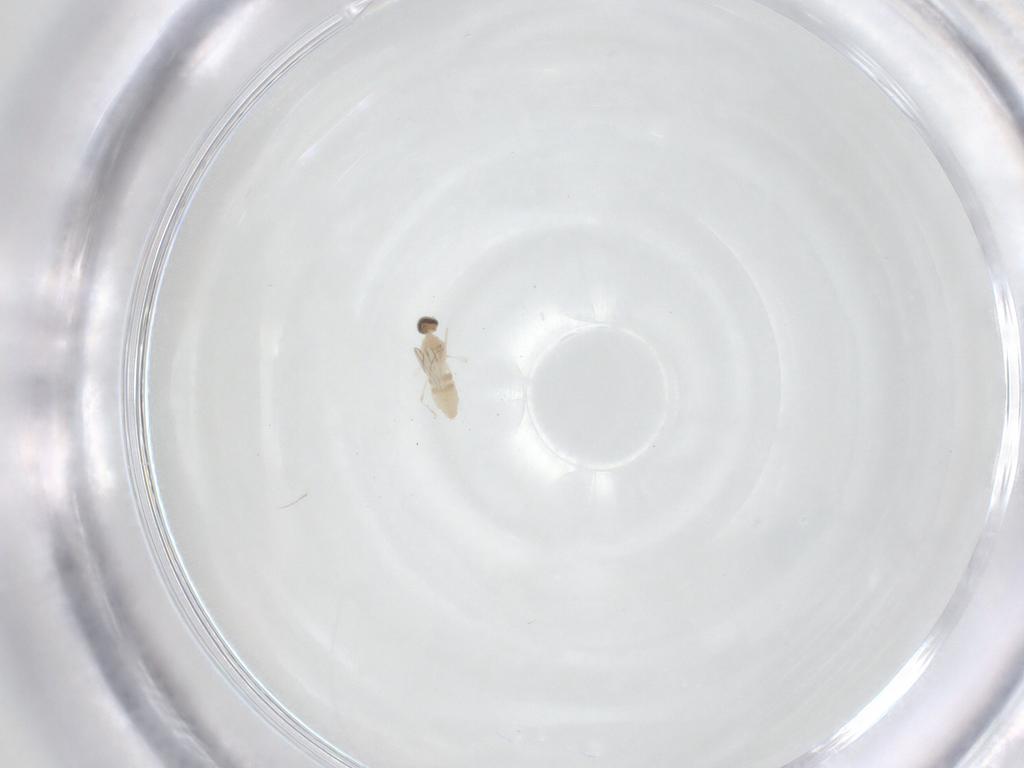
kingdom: Animalia
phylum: Arthropoda
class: Insecta
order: Diptera
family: Cecidomyiidae
